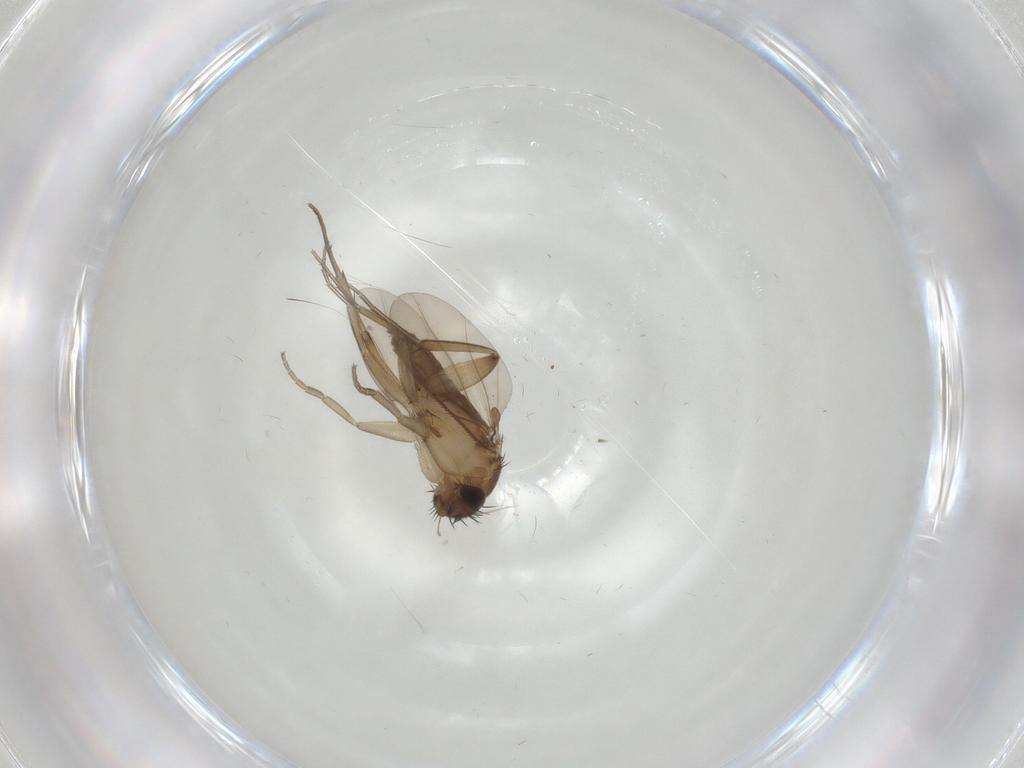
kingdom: Animalia
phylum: Arthropoda
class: Insecta
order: Diptera
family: Phoridae
